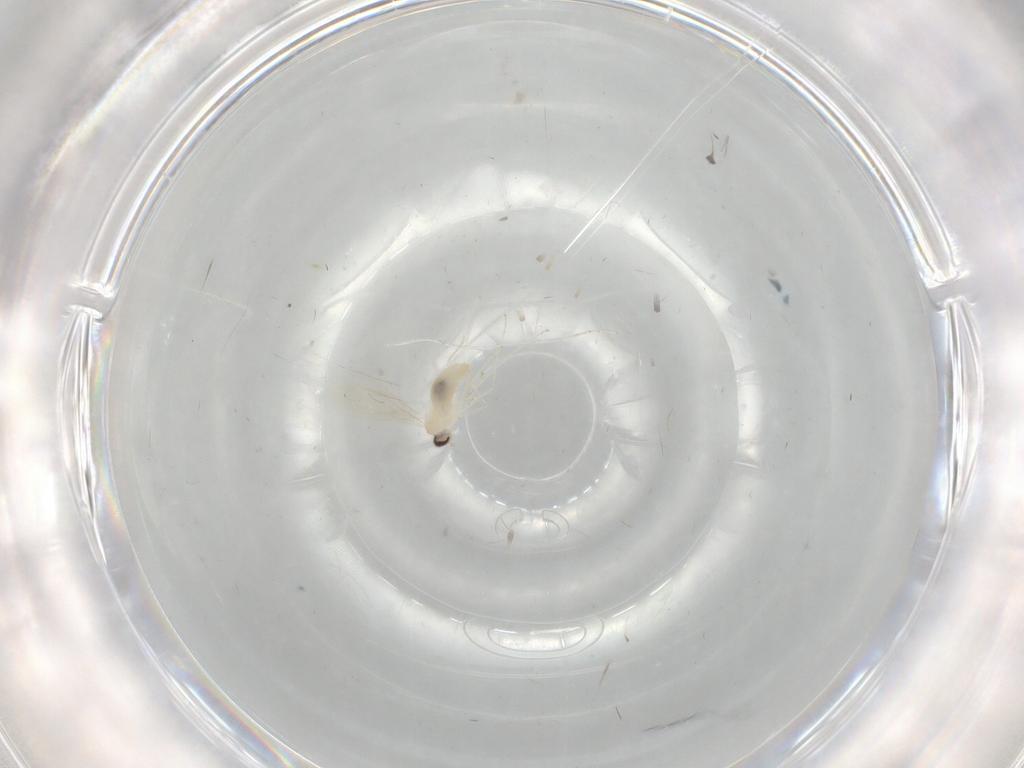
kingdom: Animalia
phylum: Arthropoda
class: Insecta
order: Diptera
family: Cecidomyiidae
